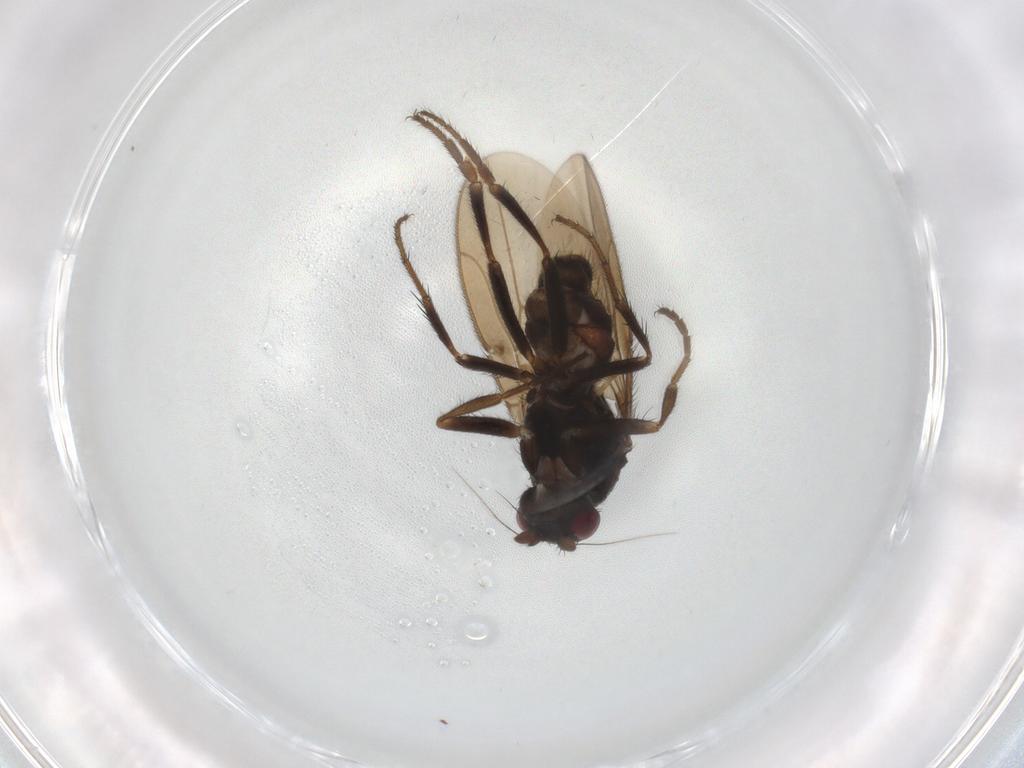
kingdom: Animalia
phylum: Arthropoda
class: Insecta
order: Diptera
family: Sphaeroceridae
